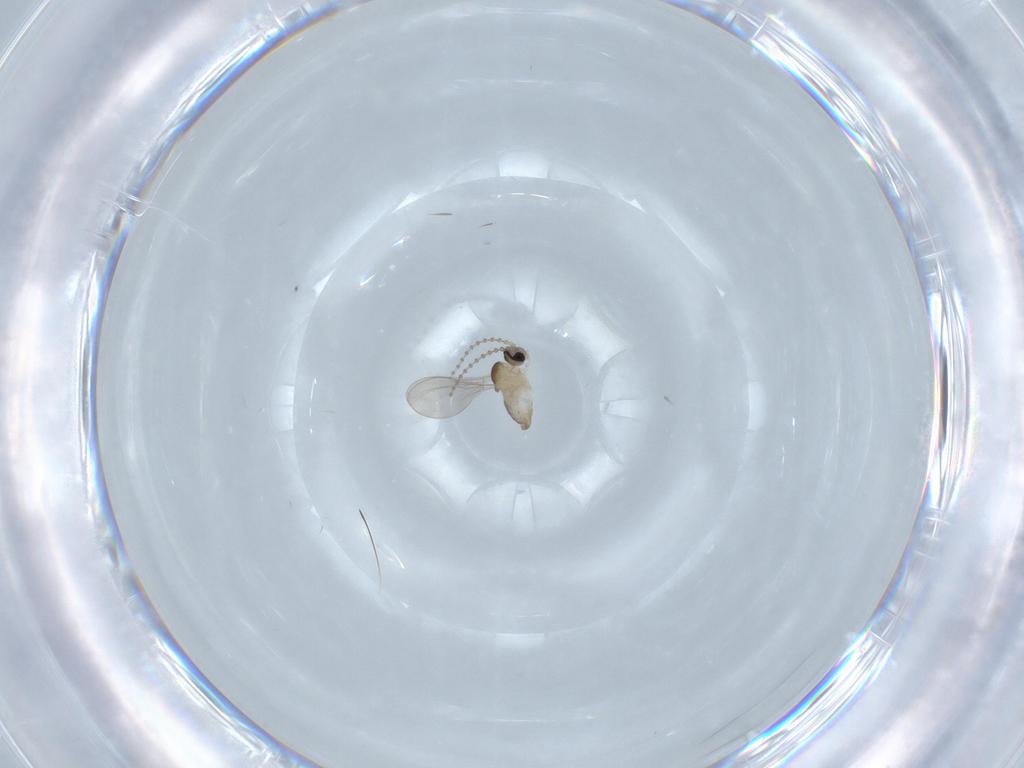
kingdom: Animalia
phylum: Arthropoda
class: Insecta
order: Diptera
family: Cecidomyiidae
